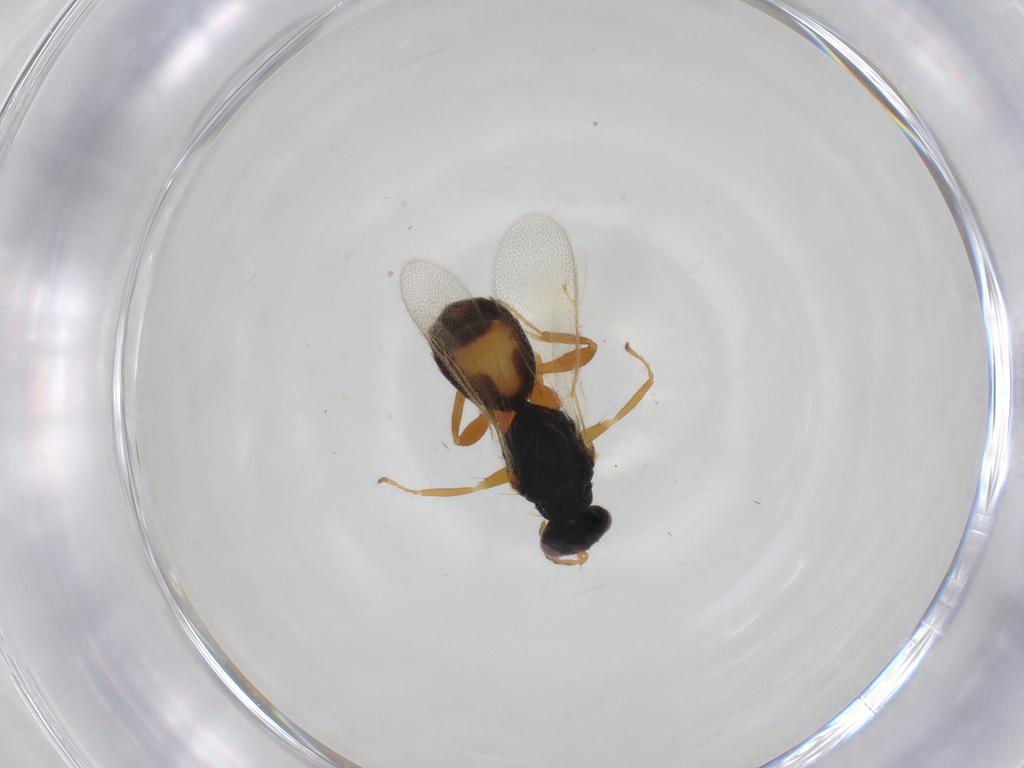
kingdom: Animalia
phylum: Arthropoda
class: Insecta
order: Hymenoptera
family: Eulophidae
